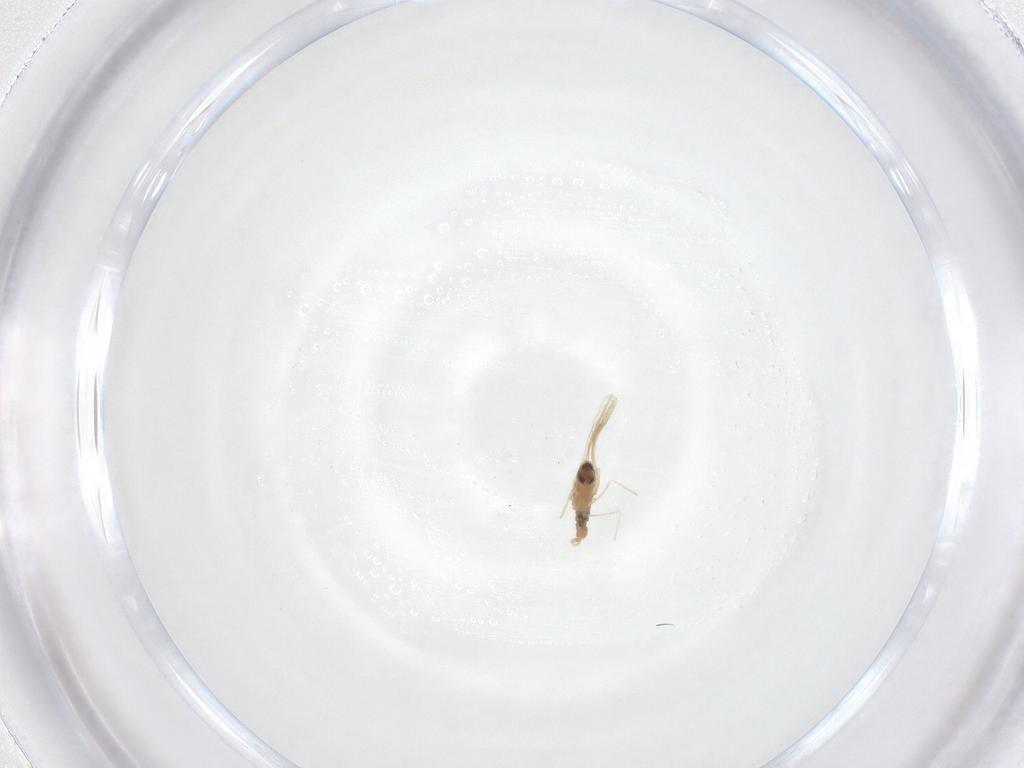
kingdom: Animalia
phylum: Arthropoda
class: Insecta
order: Diptera
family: Cecidomyiidae
